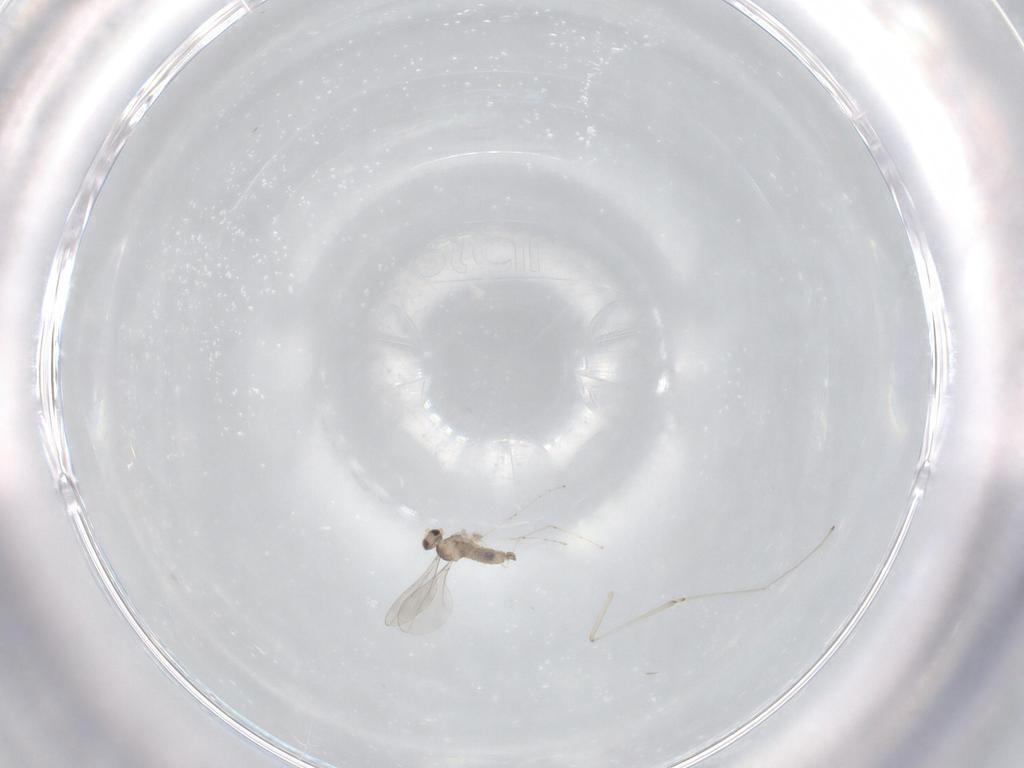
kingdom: Animalia
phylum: Arthropoda
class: Insecta
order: Diptera
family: Cecidomyiidae
